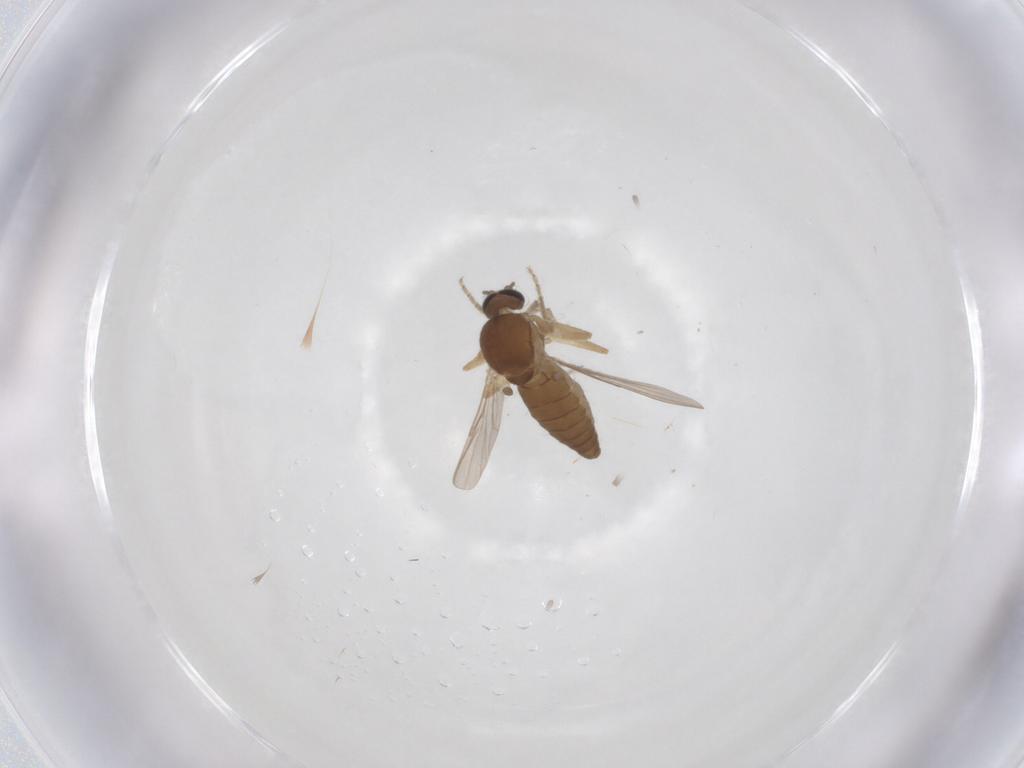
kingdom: Animalia
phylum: Arthropoda
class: Insecta
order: Diptera
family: Ceratopogonidae
